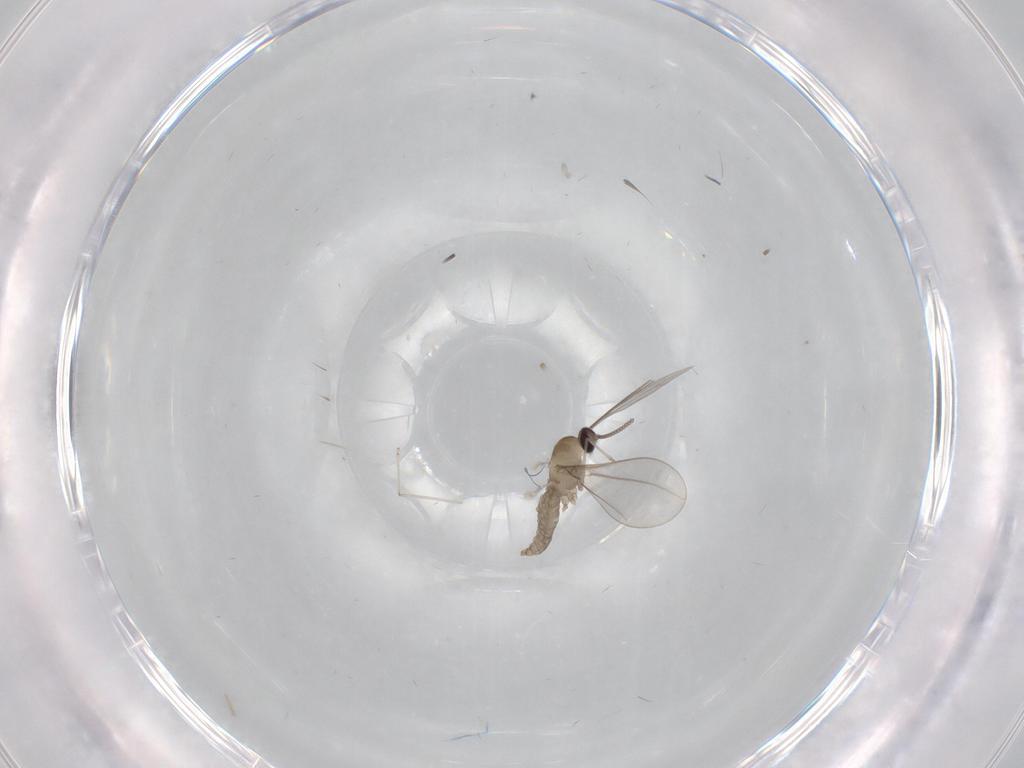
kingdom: Animalia
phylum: Arthropoda
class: Insecta
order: Diptera
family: Sciaridae
